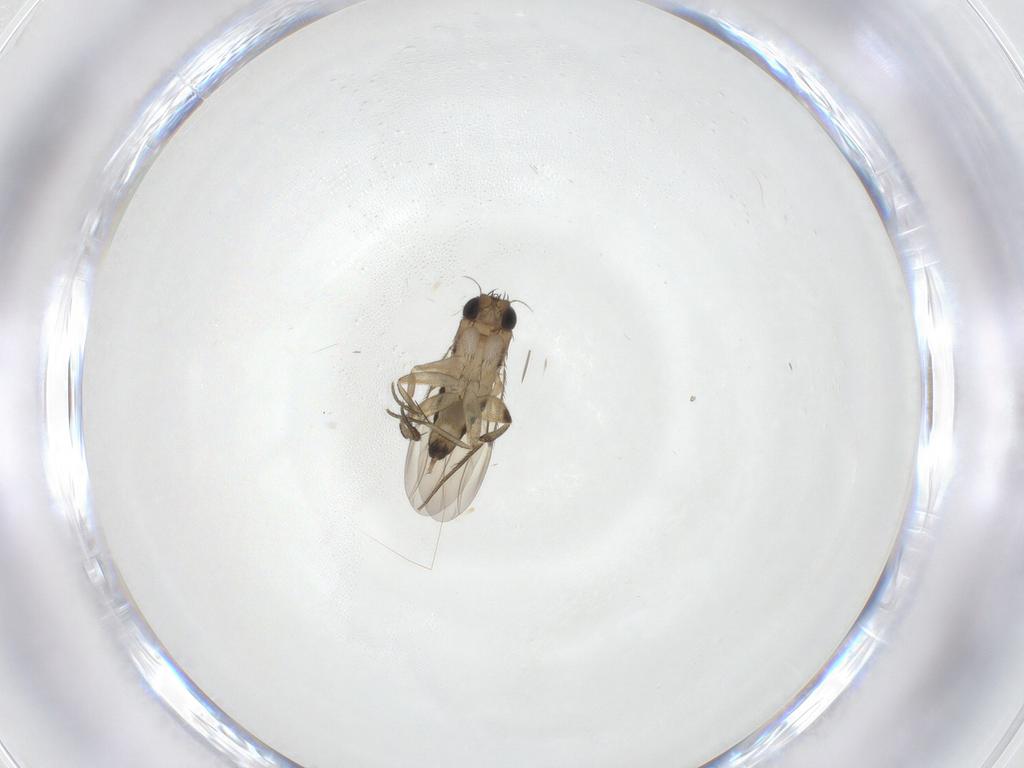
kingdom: Animalia
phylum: Arthropoda
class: Insecta
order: Diptera
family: Phoridae
